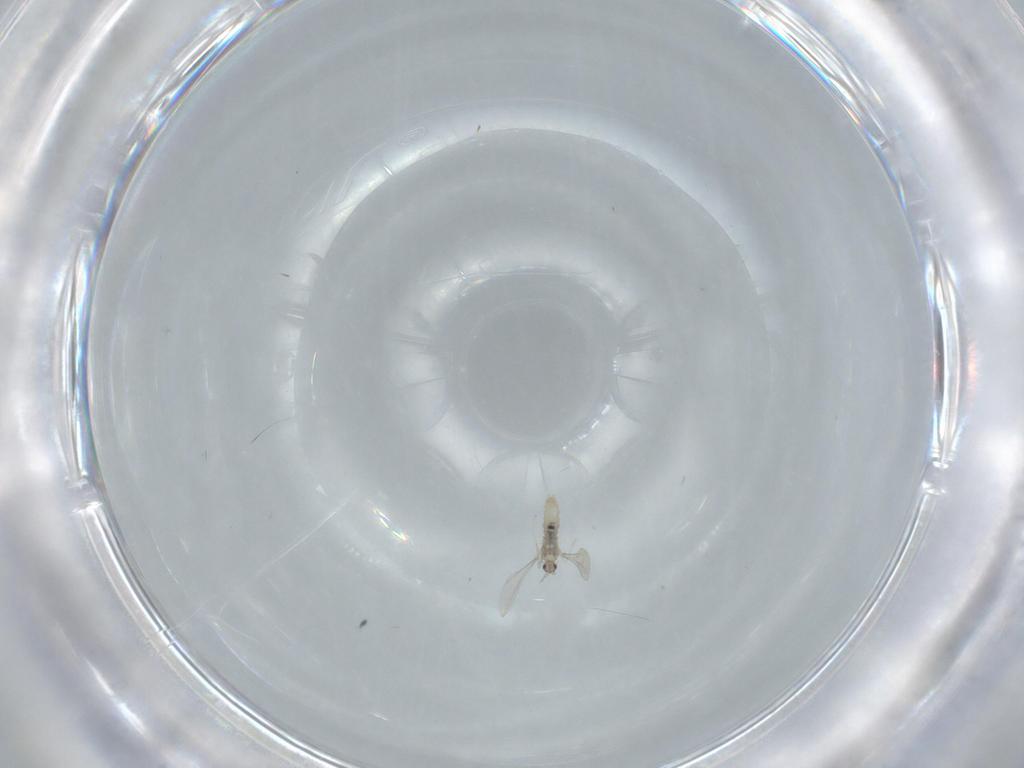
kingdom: Animalia
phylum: Arthropoda
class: Insecta
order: Diptera
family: Cecidomyiidae
